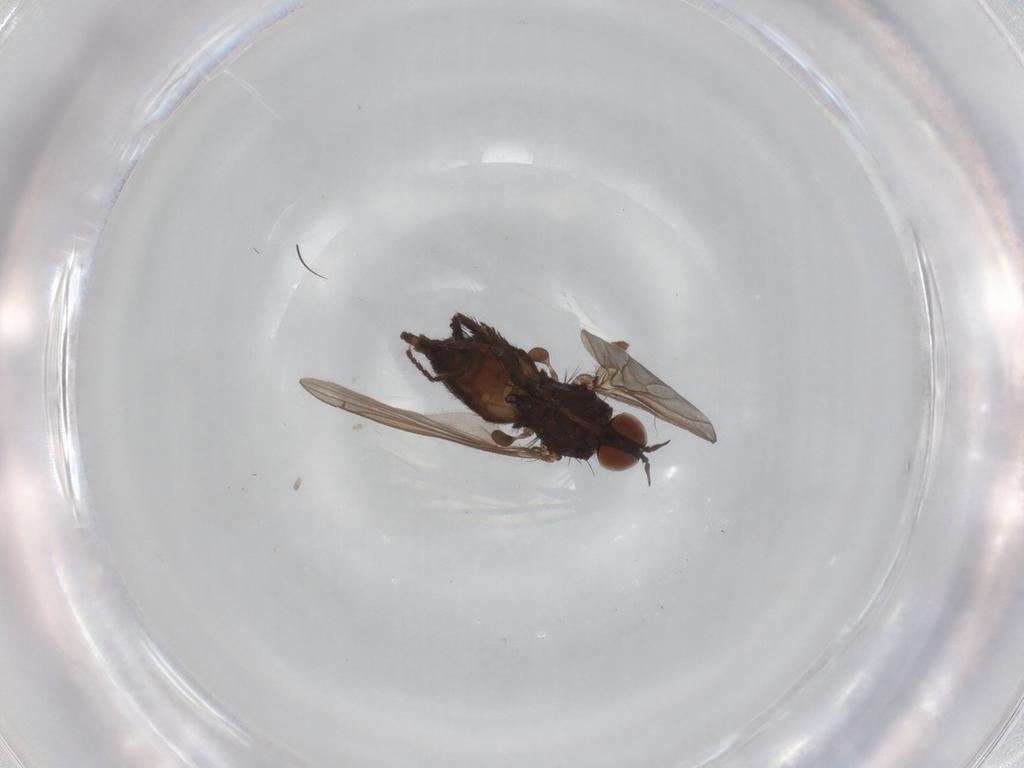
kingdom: Animalia
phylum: Arthropoda
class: Insecta
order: Diptera
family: Empididae
